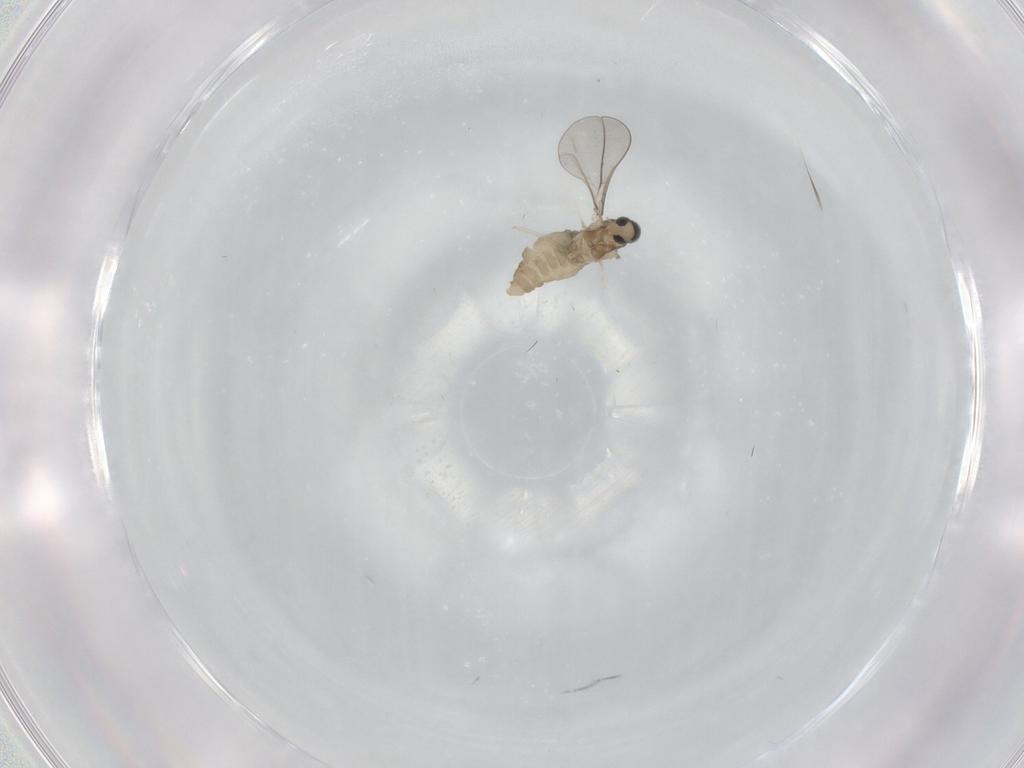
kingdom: Animalia
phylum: Arthropoda
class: Insecta
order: Diptera
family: Cecidomyiidae
